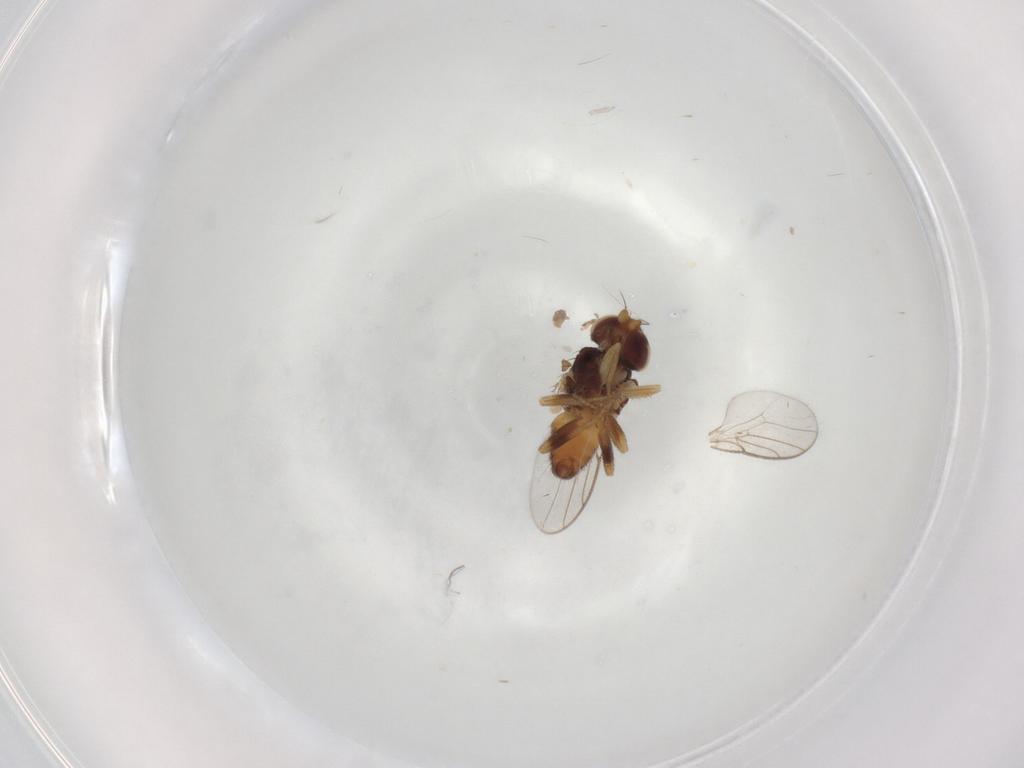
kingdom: Animalia
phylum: Arthropoda
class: Insecta
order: Diptera
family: Chloropidae
